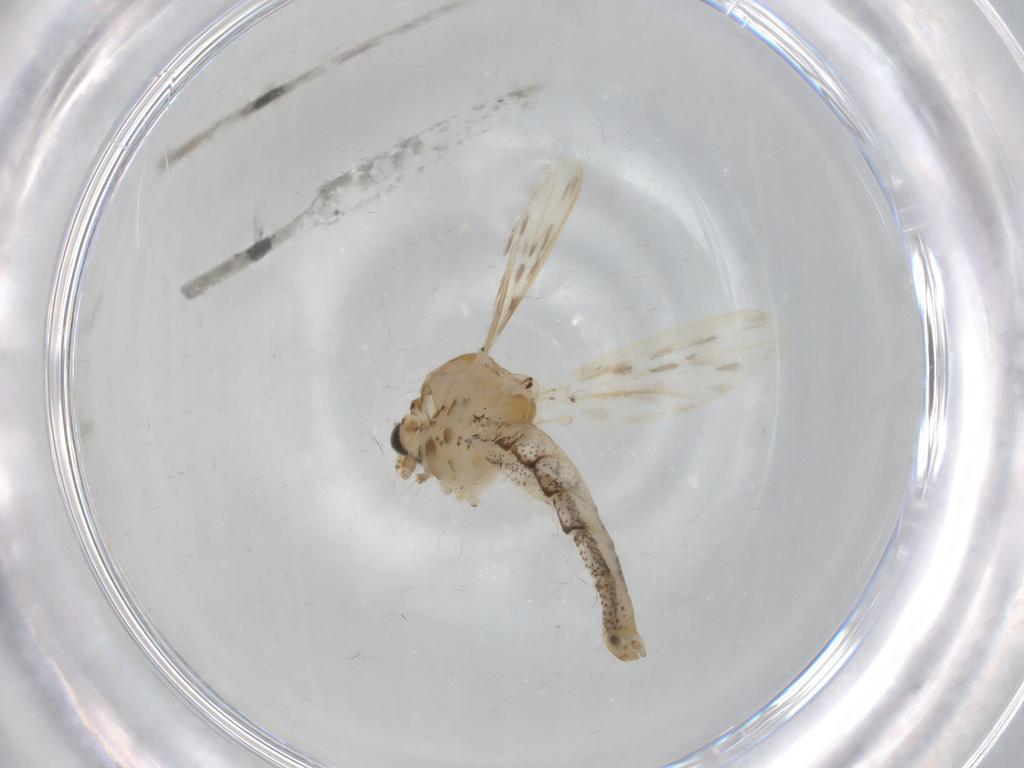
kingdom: Animalia
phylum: Arthropoda
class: Insecta
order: Diptera
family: Chaoboridae
